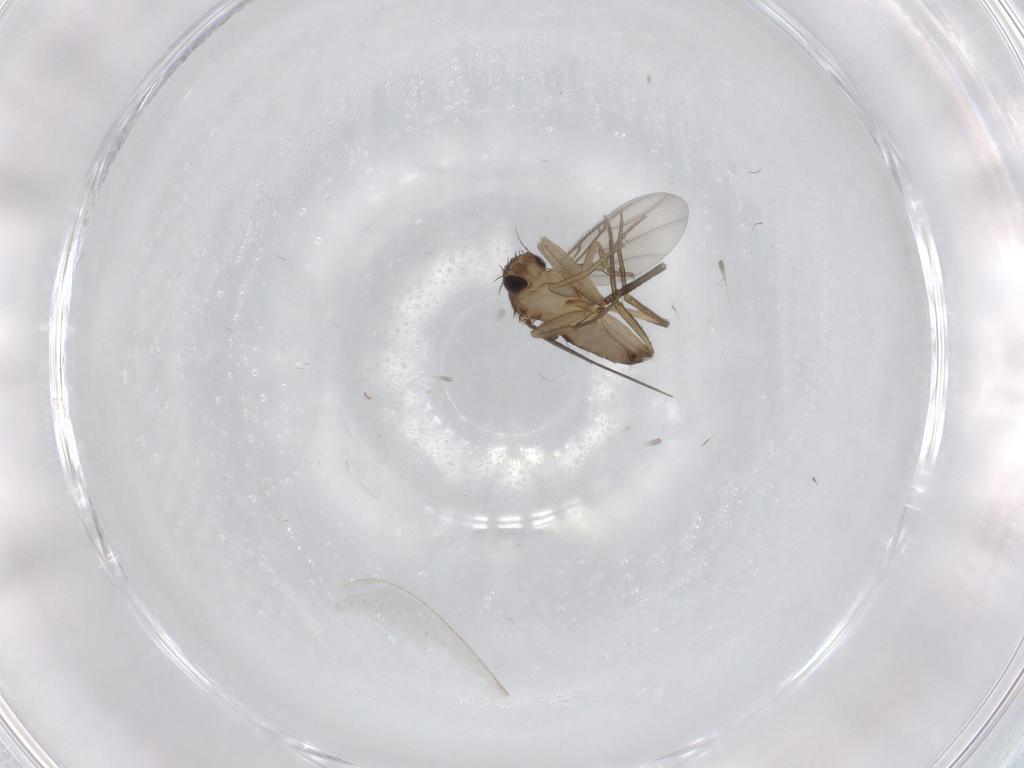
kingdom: Animalia
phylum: Arthropoda
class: Insecta
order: Diptera
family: Phoridae
